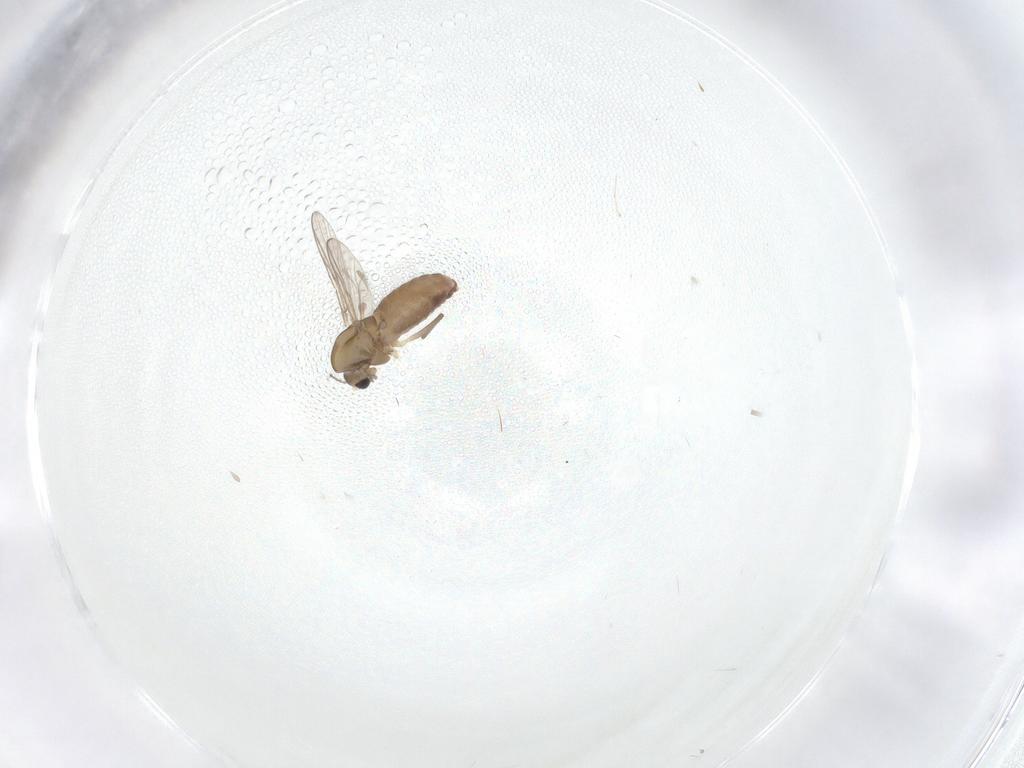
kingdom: Animalia
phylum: Arthropoda
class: Insecta
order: Diptera
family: Chironomidae
